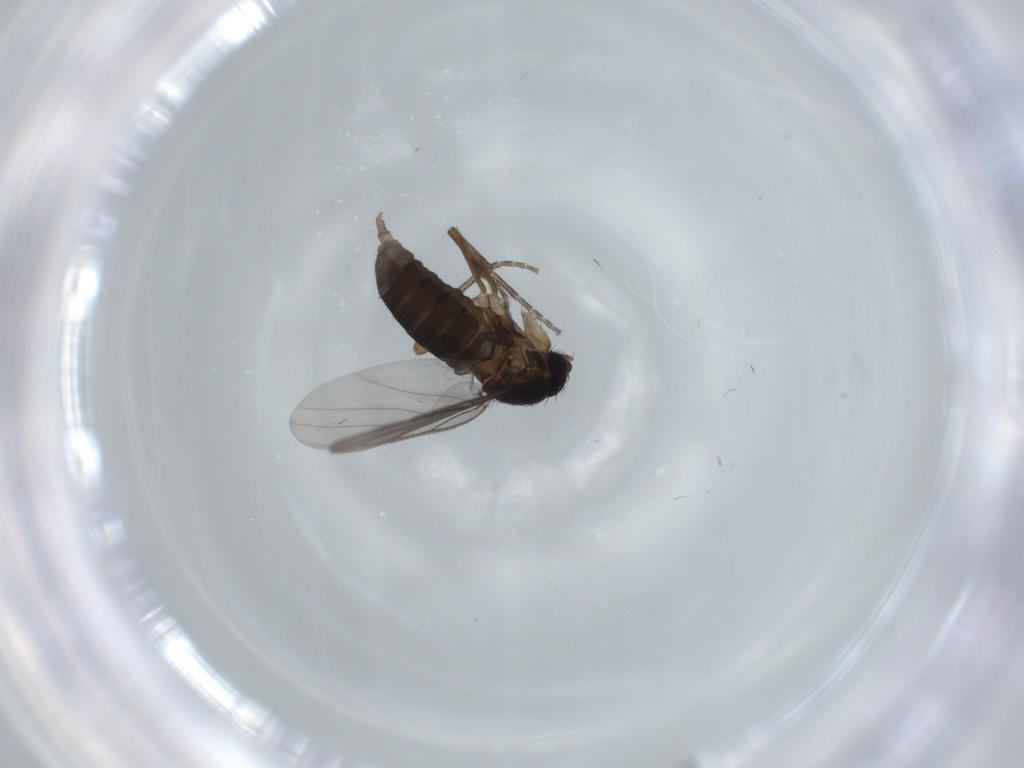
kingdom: Animalia
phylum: Arthropoda
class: Insecta
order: Diptera
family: Phoridae
